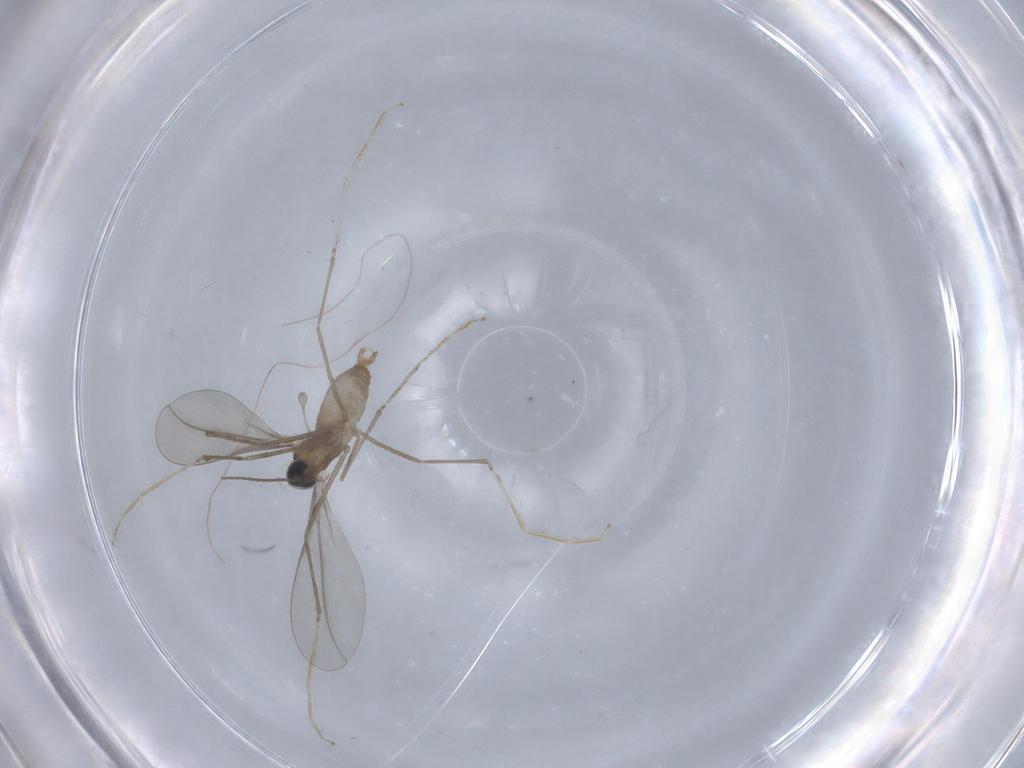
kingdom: Animalia
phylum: Arthropoda
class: Insecta
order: Diptera
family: Cecidomyiidae
